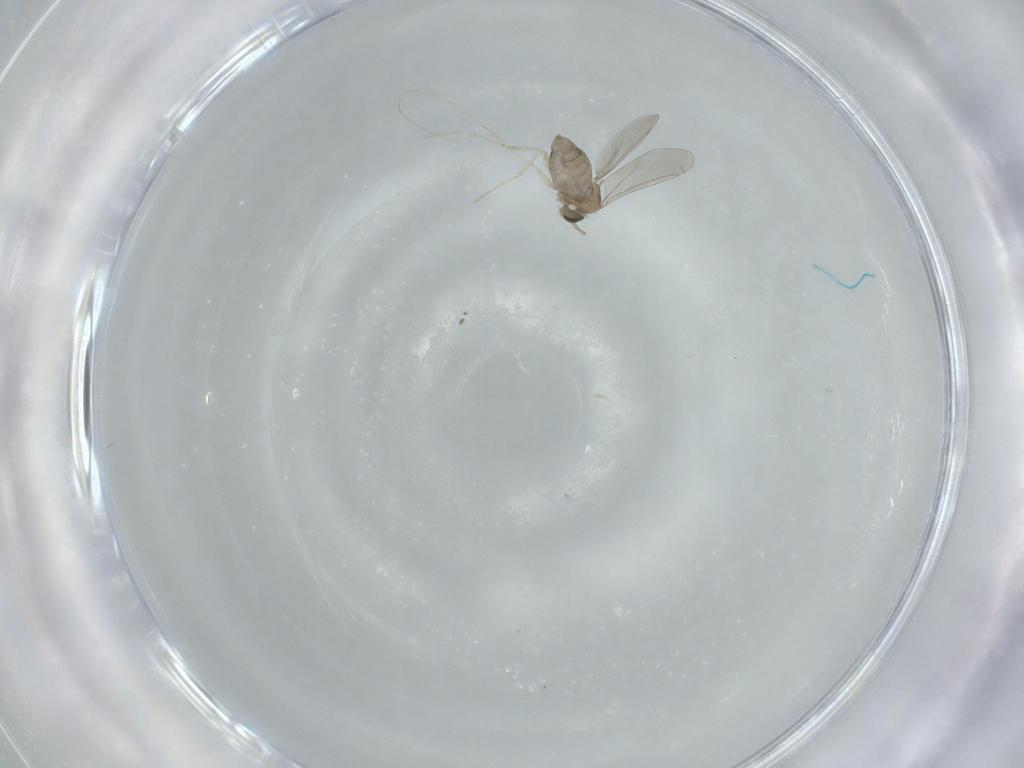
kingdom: Animalia
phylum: Arthropoda
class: Insecta
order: Diptera
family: Cecidomyiidae
